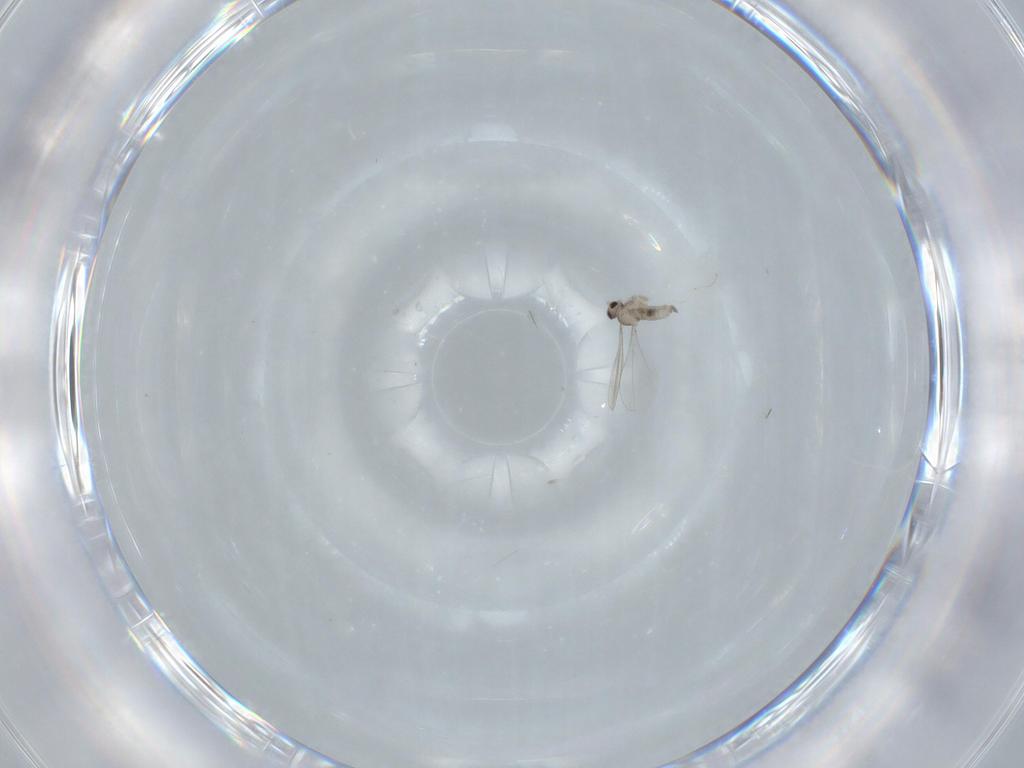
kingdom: Animalia
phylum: Arthropoda
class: Insecta
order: Diptera
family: Cecidomyiidae
